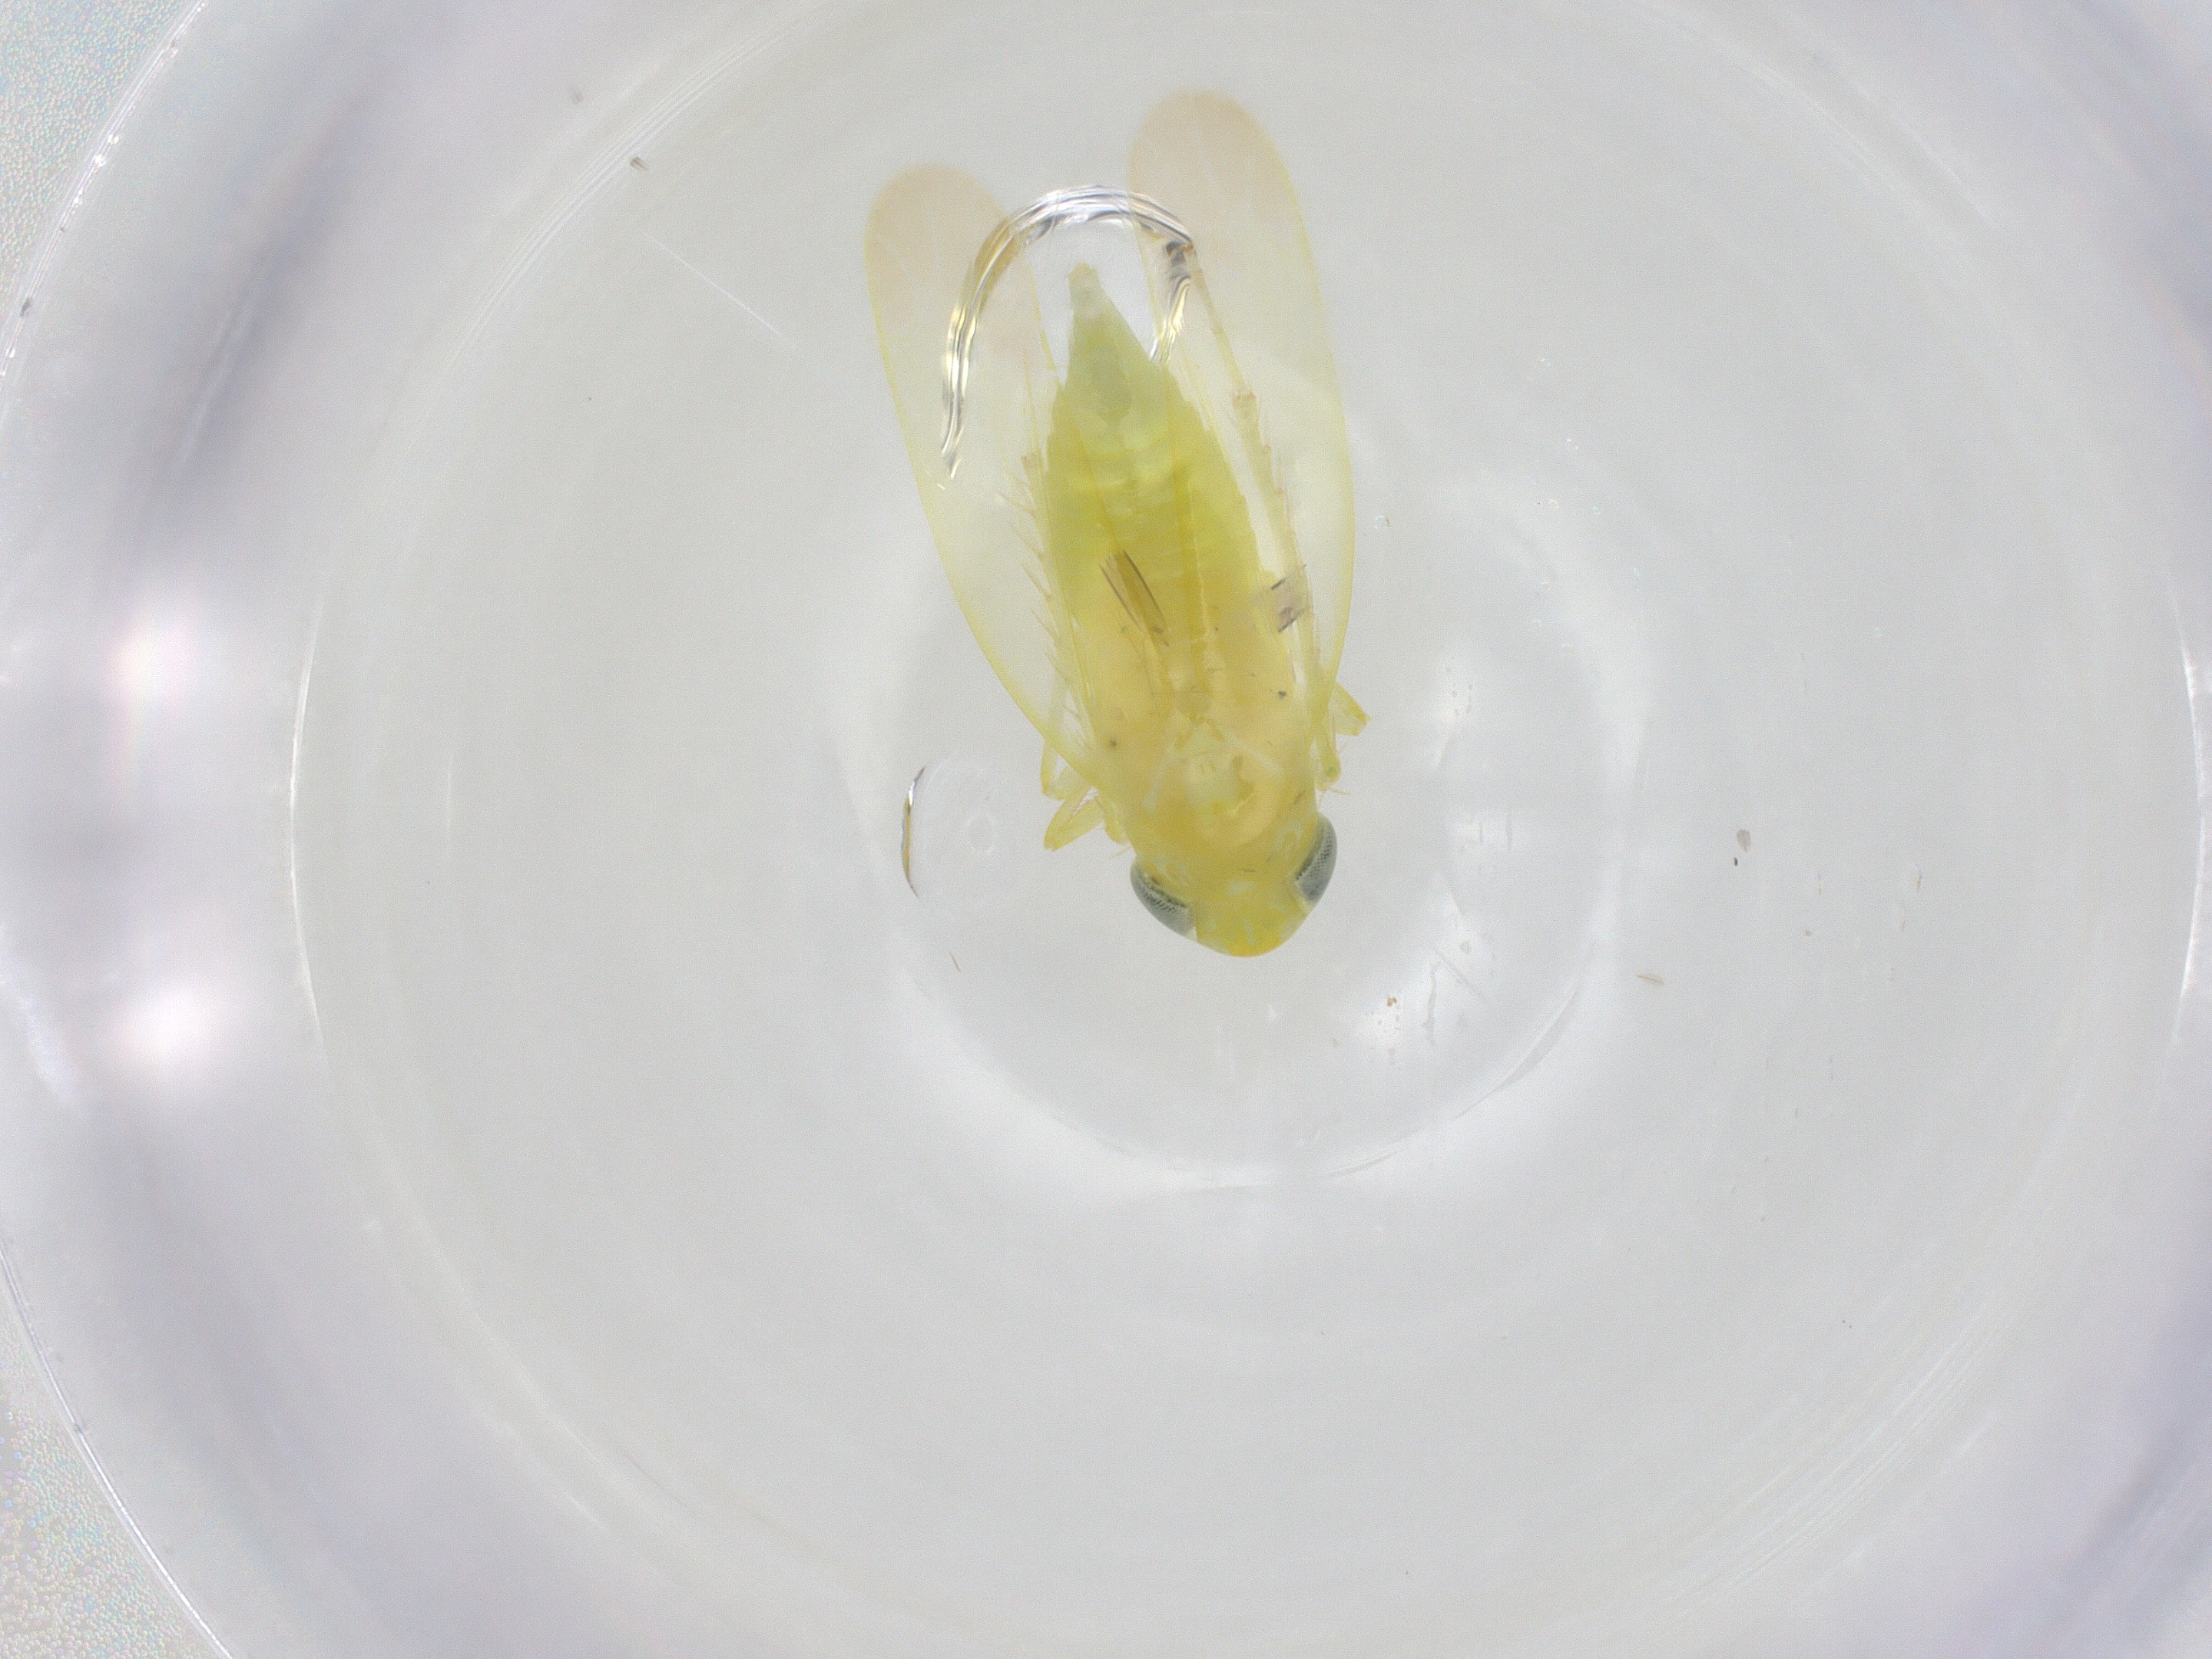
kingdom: Animalia
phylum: Arthropoda
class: Insecta
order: Hemiptera
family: Cicadellidae
